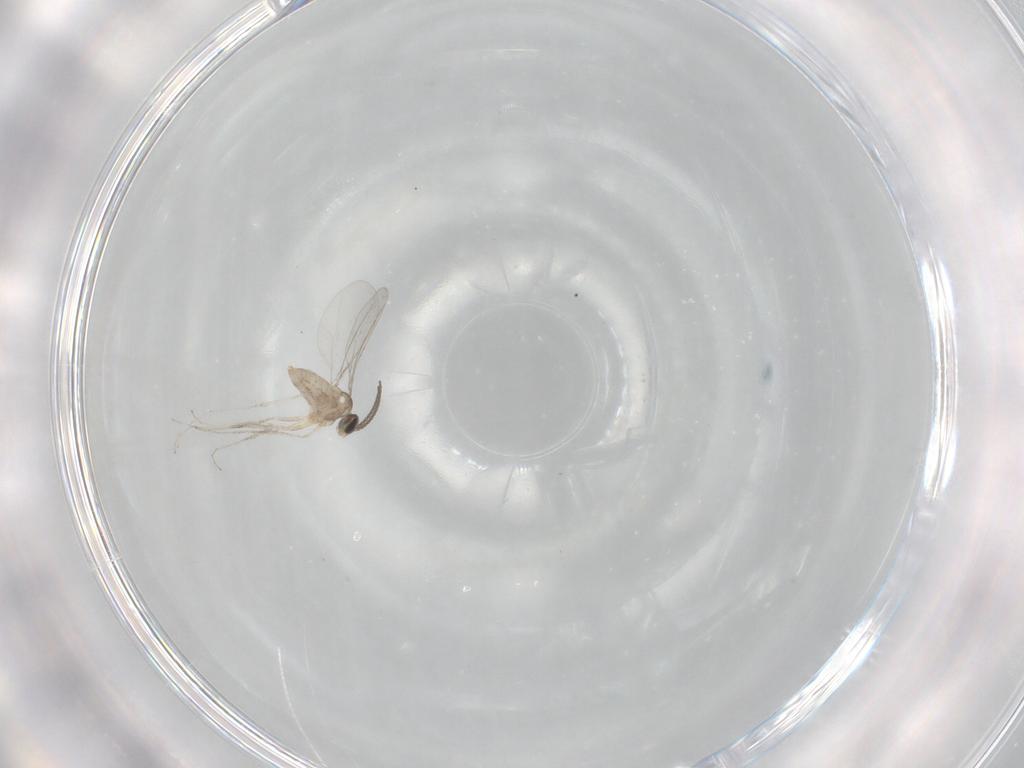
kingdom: Animalia
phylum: Arthropoda
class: Insecta
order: Diptera
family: Cecidomyiidae
